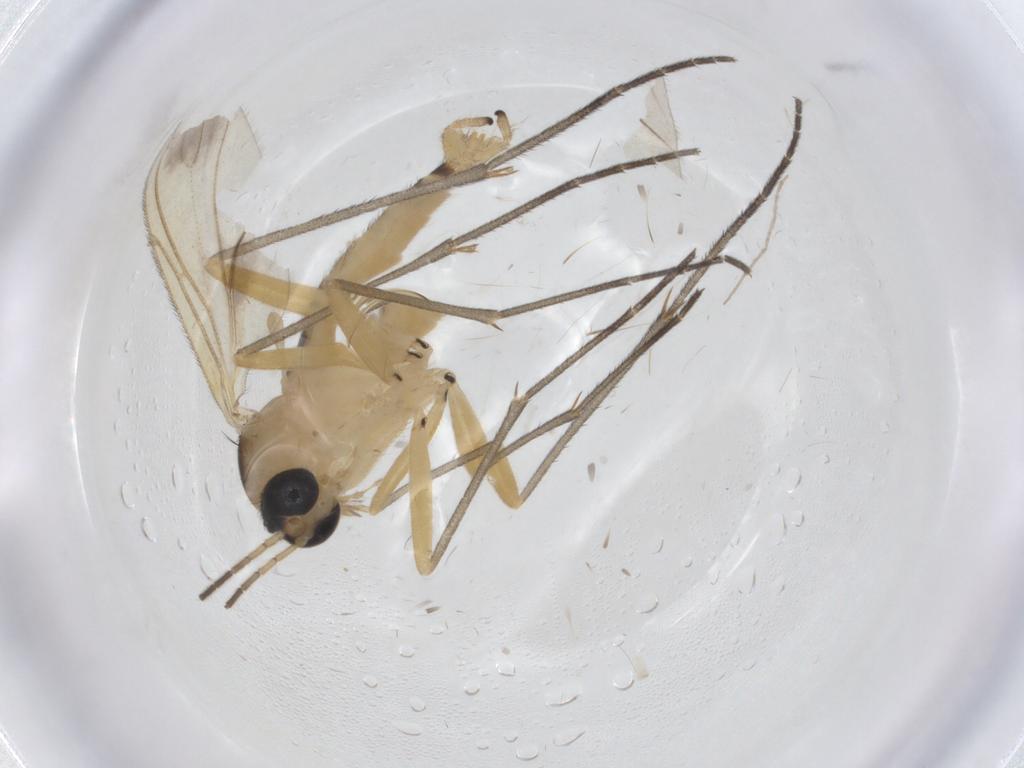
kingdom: Animalia
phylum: Arthropoda
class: Insecta
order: Diptera
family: Sciaridae
